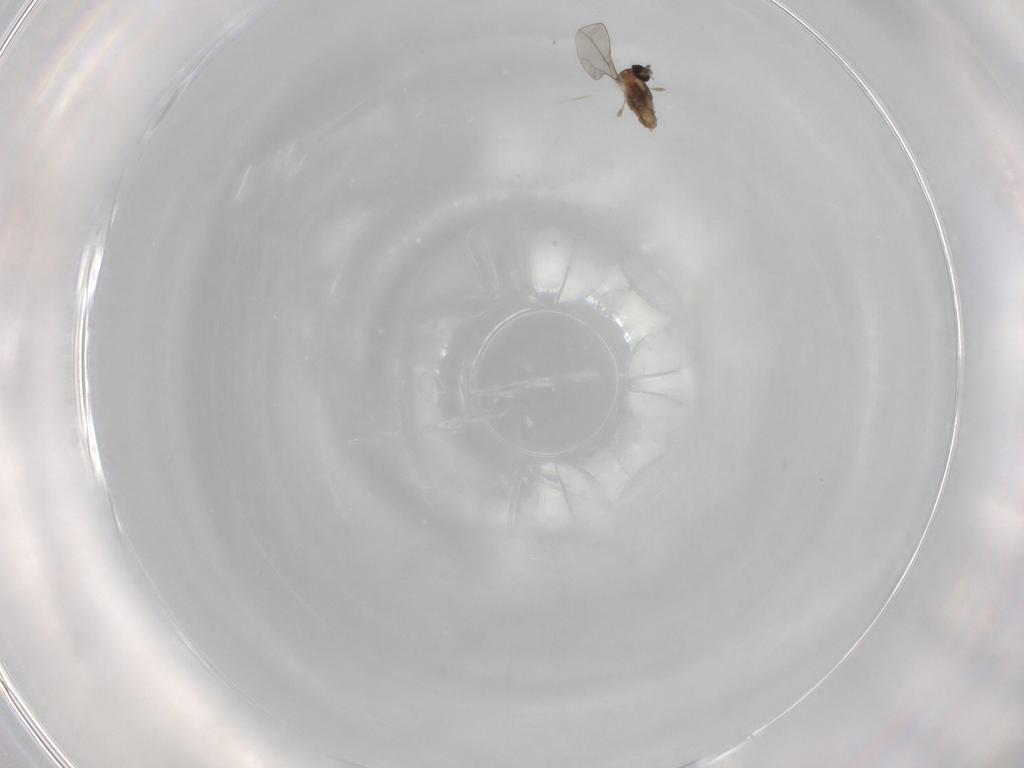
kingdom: Animalia
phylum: Arthropoda
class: Insecta
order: Diptera
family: Cecidomyiidae
